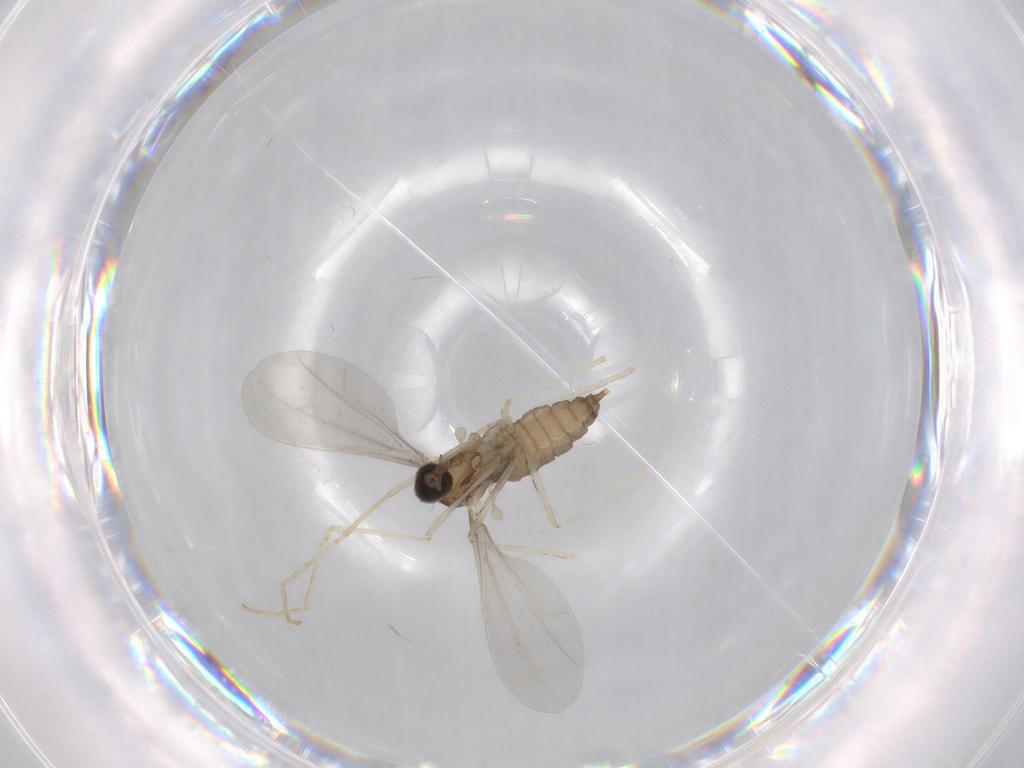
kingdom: Animalia
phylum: Arthropoda
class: Insecta
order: Diptera
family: Cecidomyiidae
